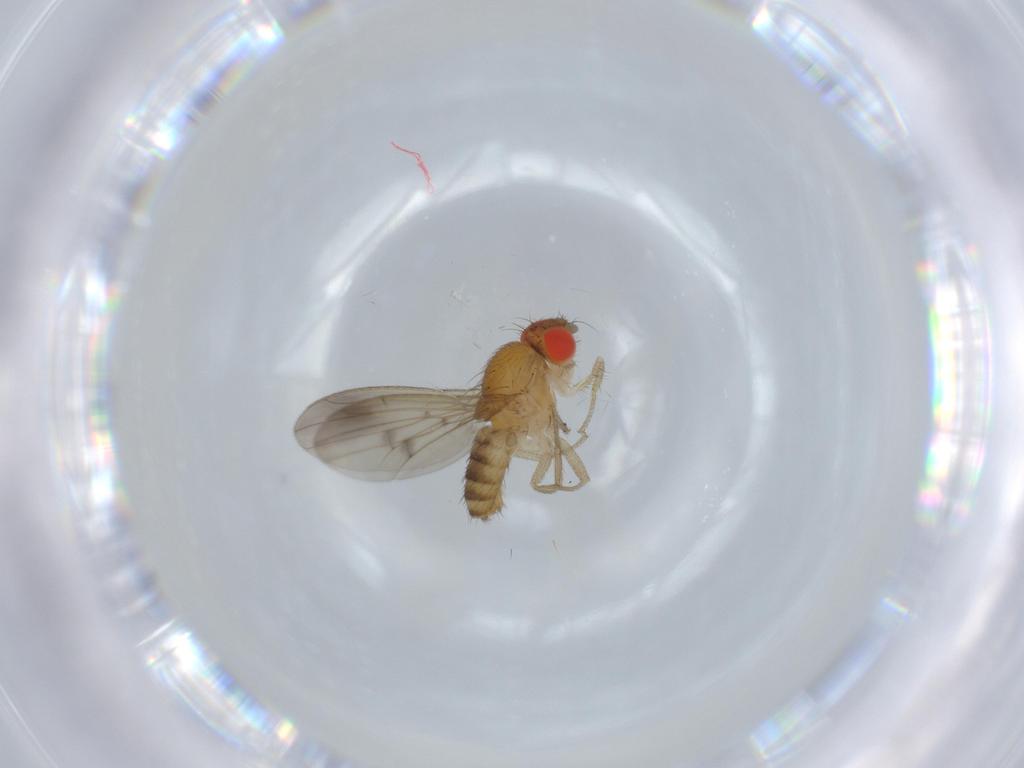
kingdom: Animalia
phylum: Arthropoda
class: Insecta
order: Diptera
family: Drosophilidae
